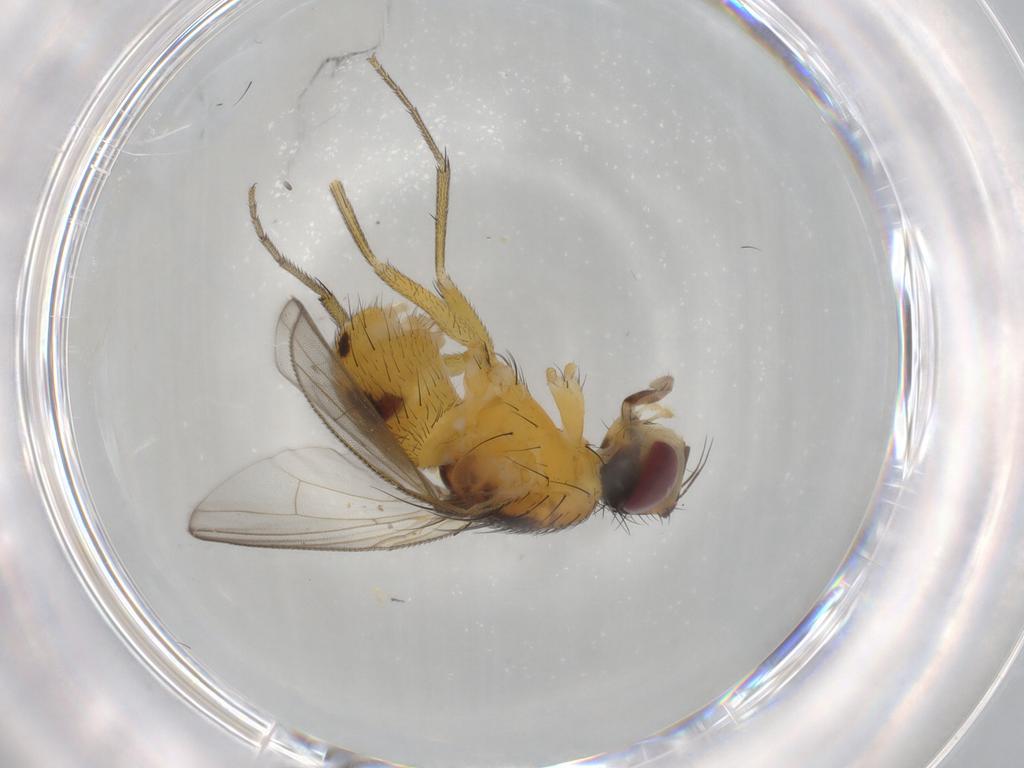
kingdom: Animalia
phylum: Arthropoda
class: Insecta
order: Diptera
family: Muscidae
